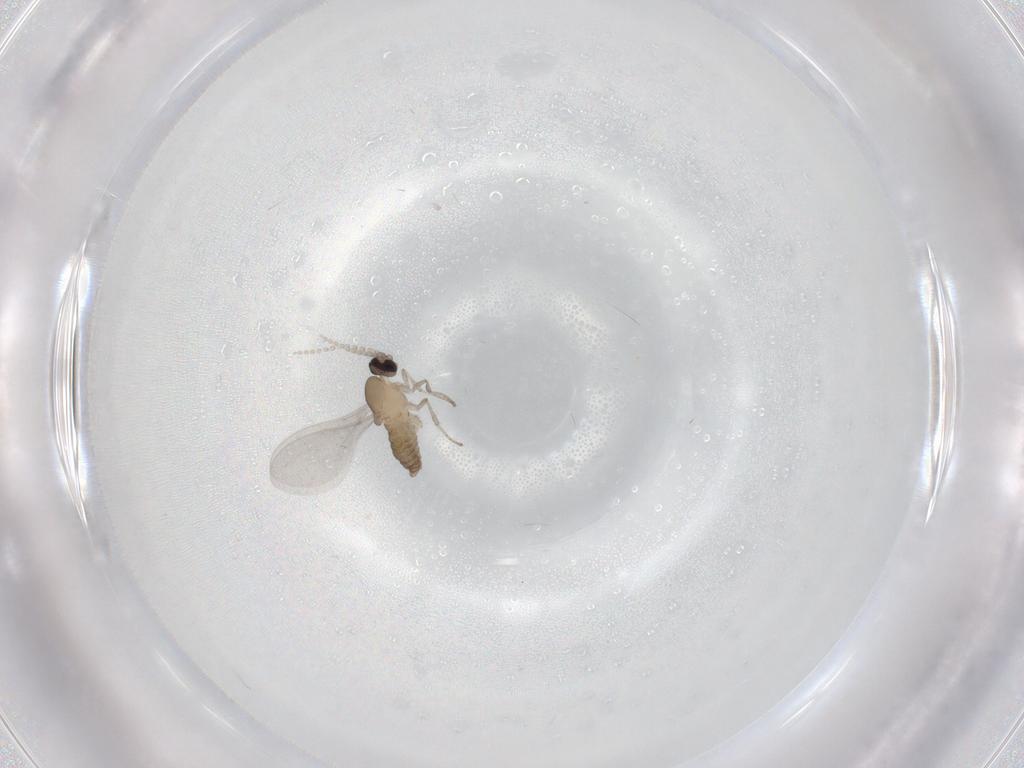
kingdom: Animalia
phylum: Arthropoda
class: Insecta
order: Diptera
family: Cecidomyiidae
